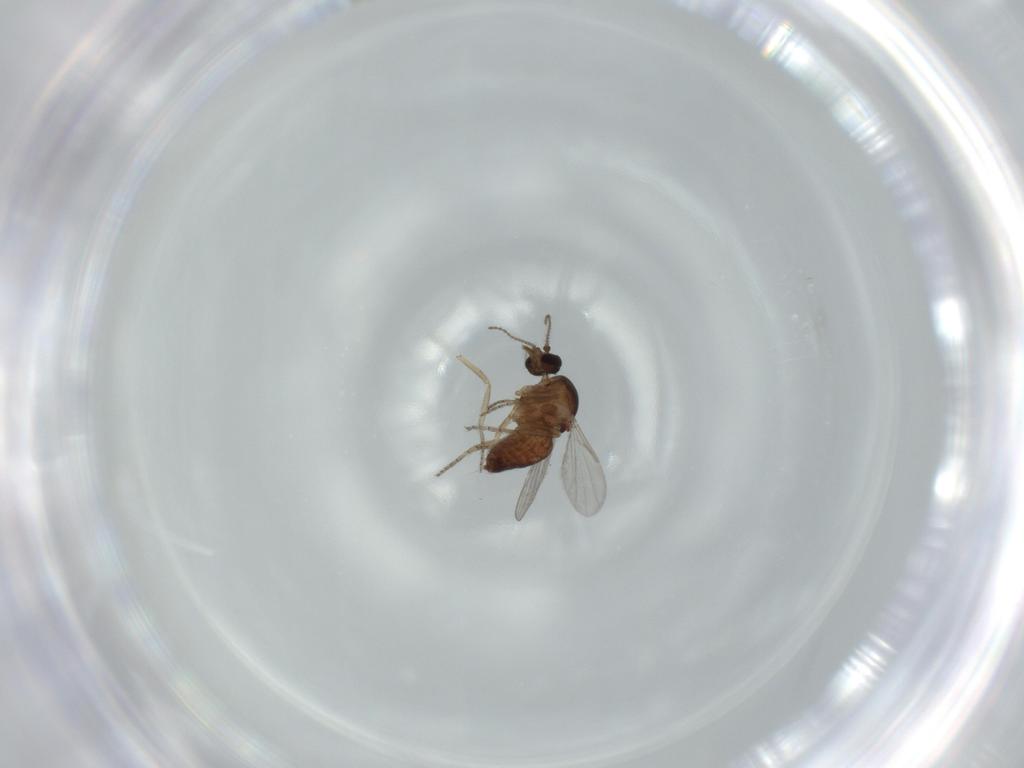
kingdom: Animalia
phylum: Arthropoda
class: Insecta
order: Diptera
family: Ceratopogonidae
